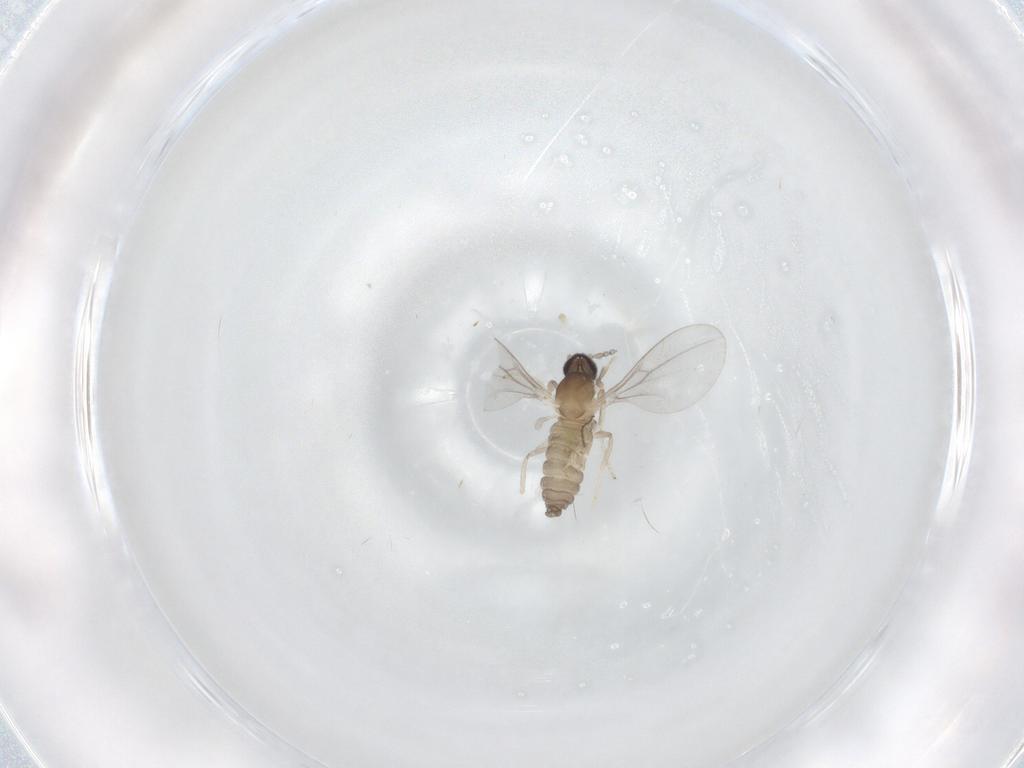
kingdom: Animalia
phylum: Arthropoda
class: Insecta
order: Diptera
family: Cecidomyiidae
